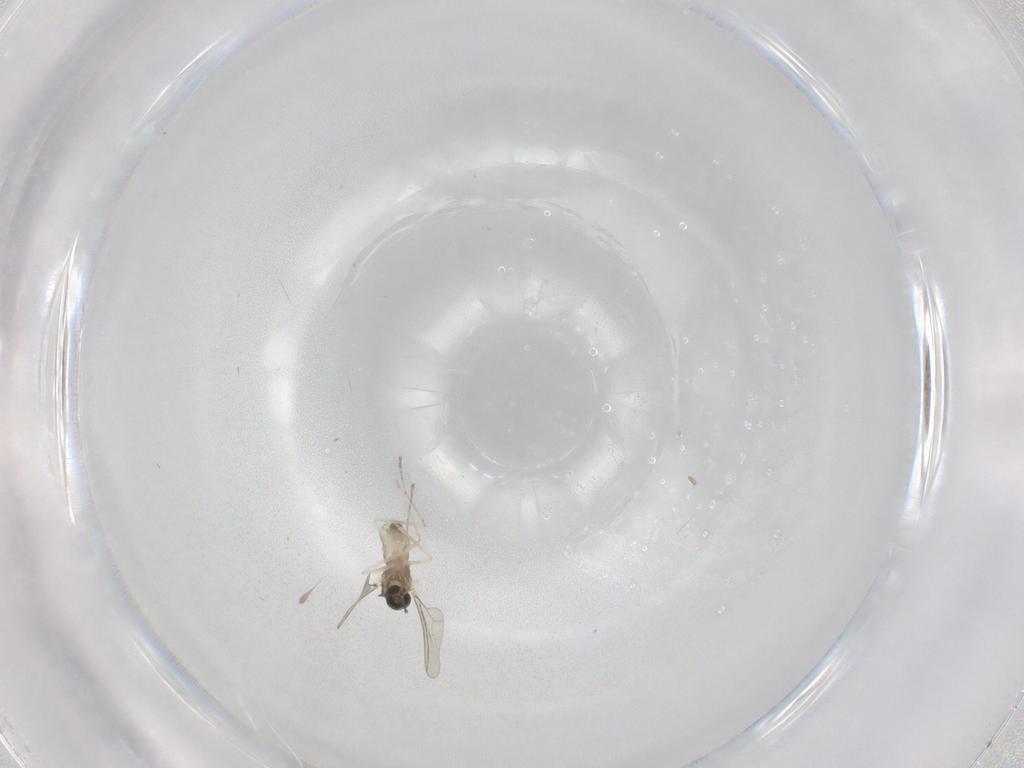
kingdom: Animalia
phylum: Arthropoda
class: Insecta
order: Diptera
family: Cecidomyiidae
